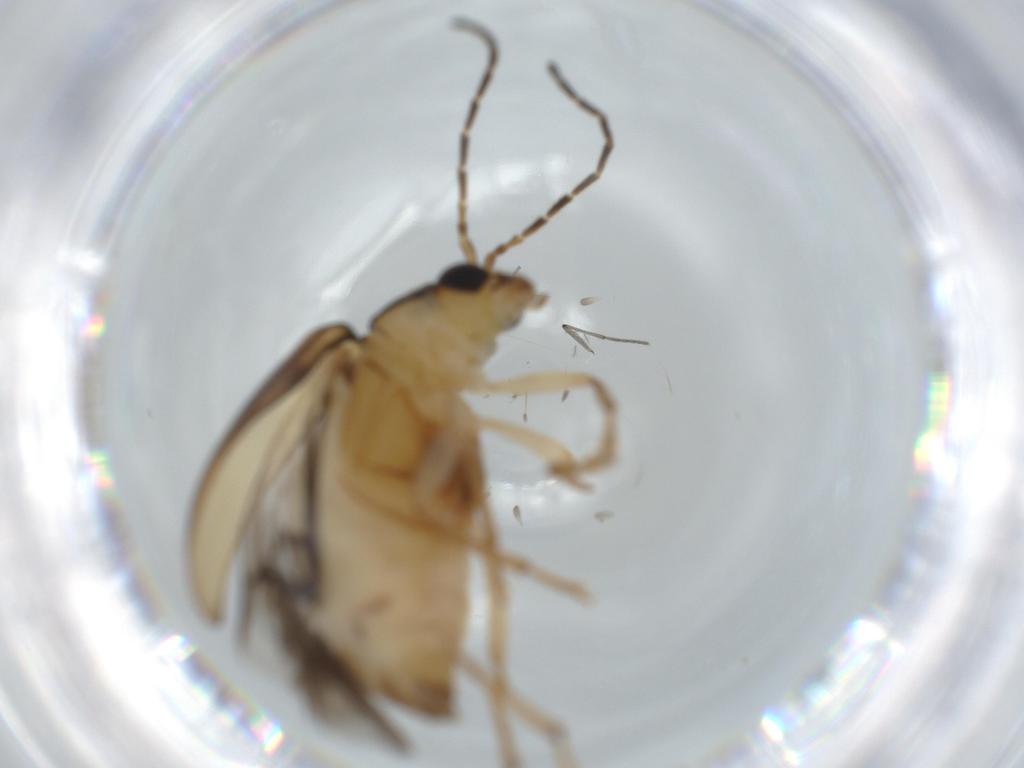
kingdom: Animalia
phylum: Arthropoda
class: Insecta
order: Coleoptera
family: Chrysomelidae
